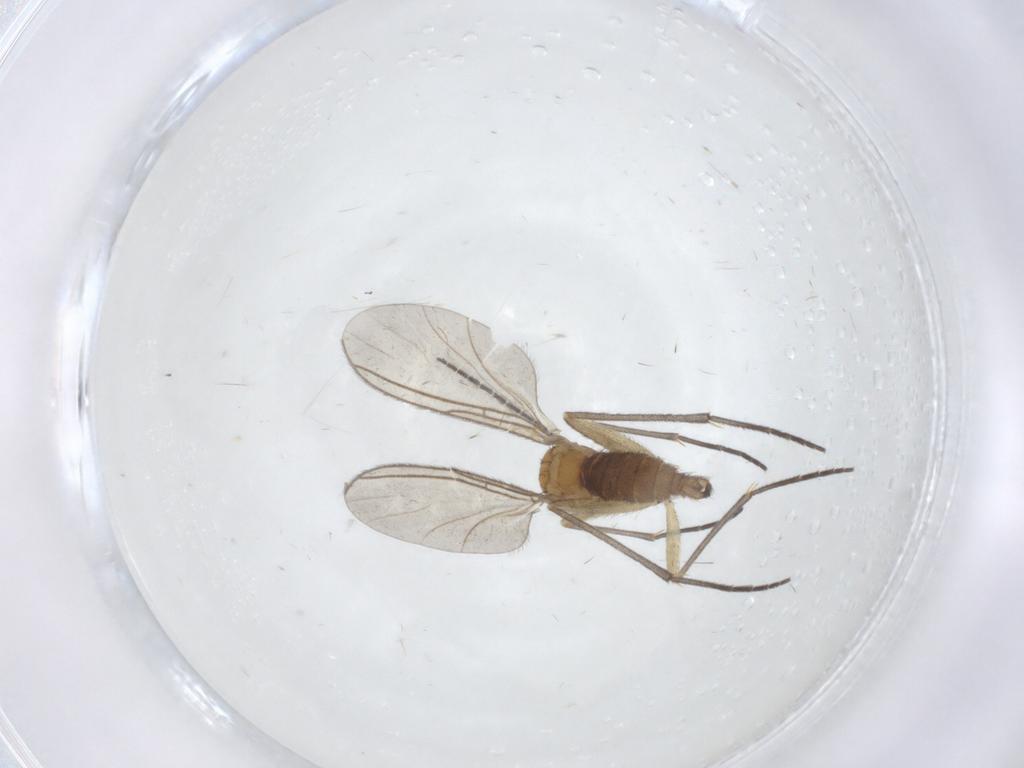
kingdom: Animalia
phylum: Arthropoda
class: Insecta
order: Diptera
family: Sciaridae
